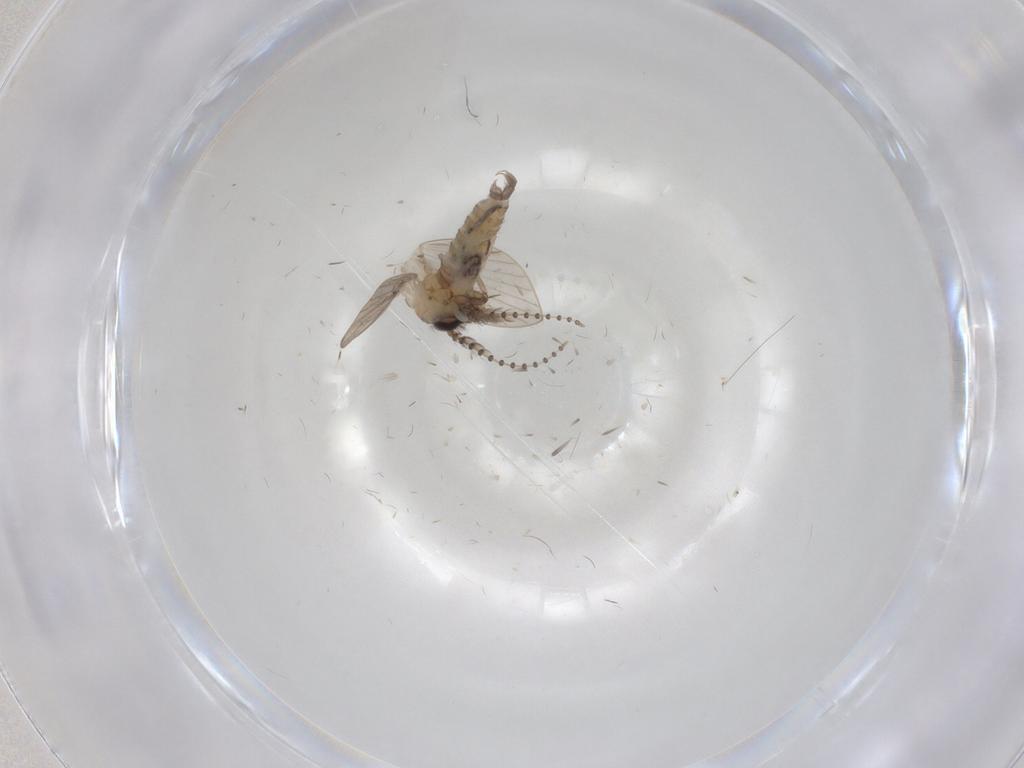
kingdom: Animalia
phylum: Arthropoda
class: Insecta
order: Diptera
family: Psychodidae
